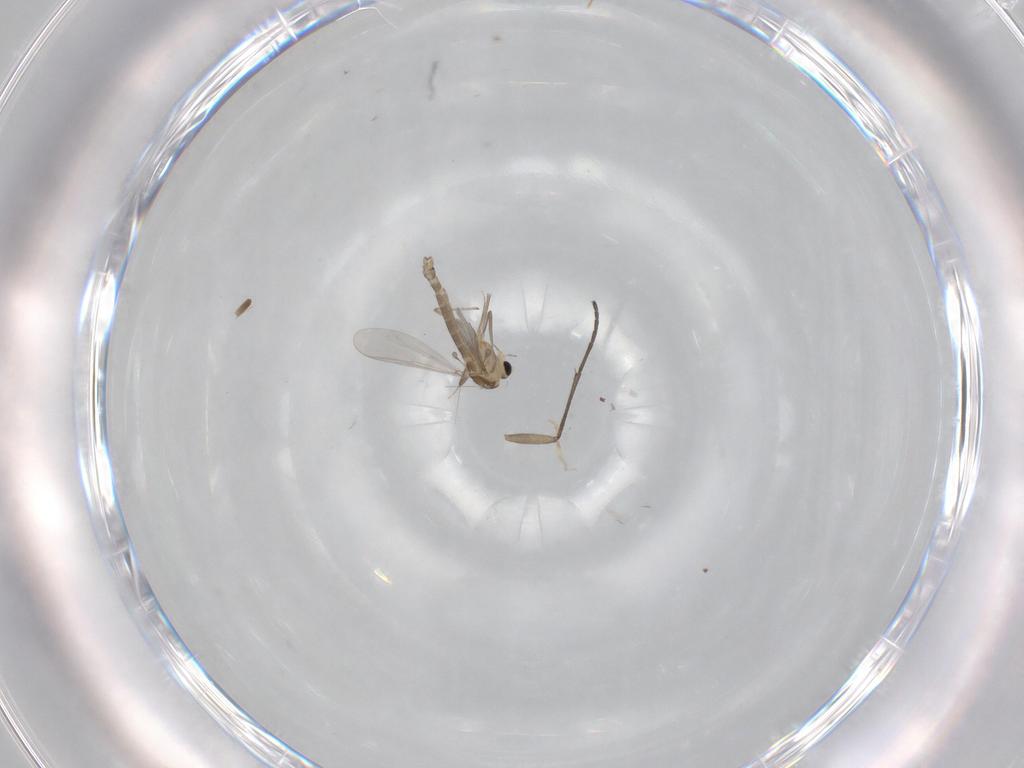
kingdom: Animalia
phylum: Arthropoda
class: Insecta
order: Diptera
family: Chironomidae
